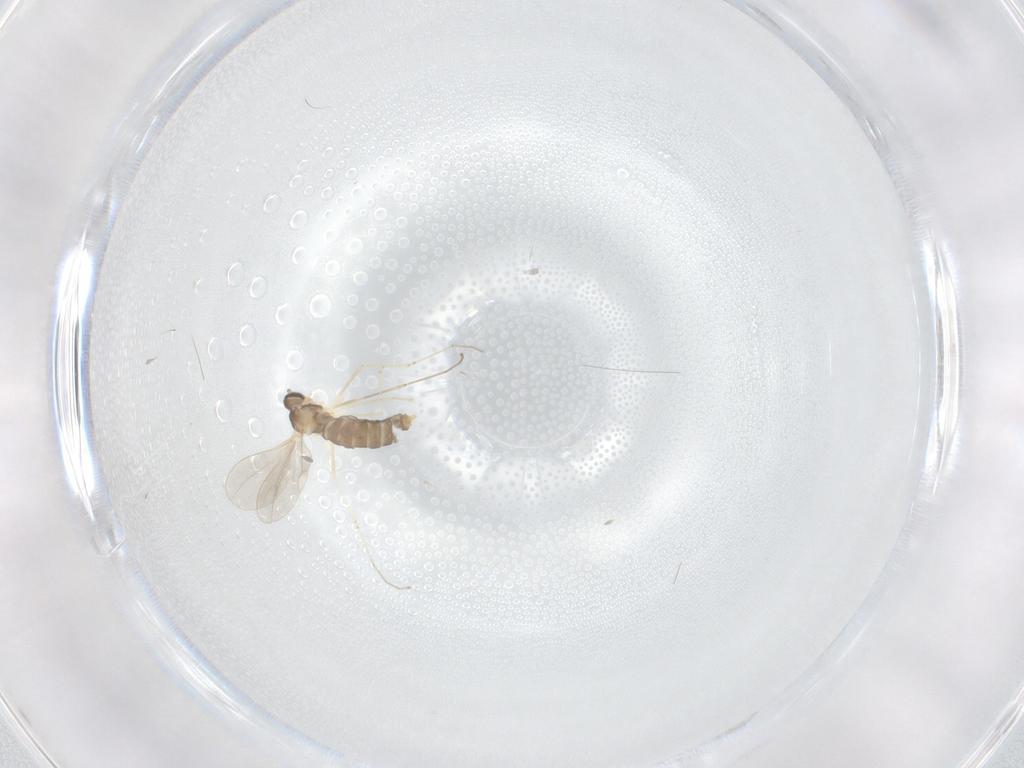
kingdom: Animalia
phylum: Arthropoda
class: Insecta
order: Diptera
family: Cecidomyiidae
